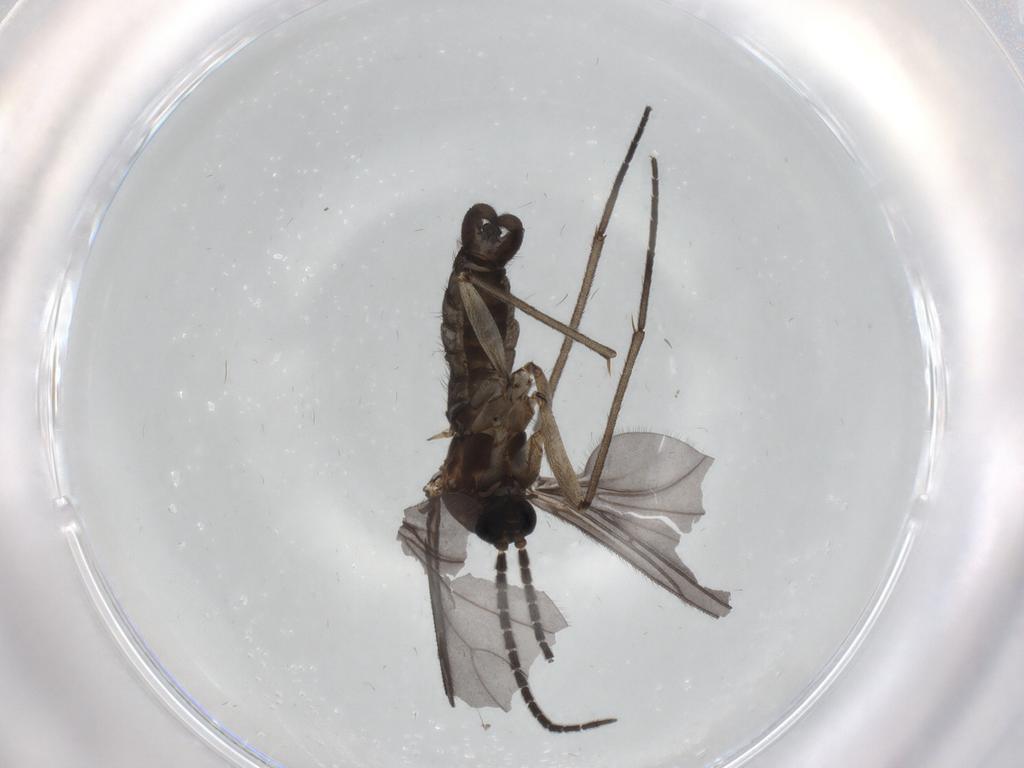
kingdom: Animalia
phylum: Arthropoda
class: Insecta
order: Diptera
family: Sciaridae
